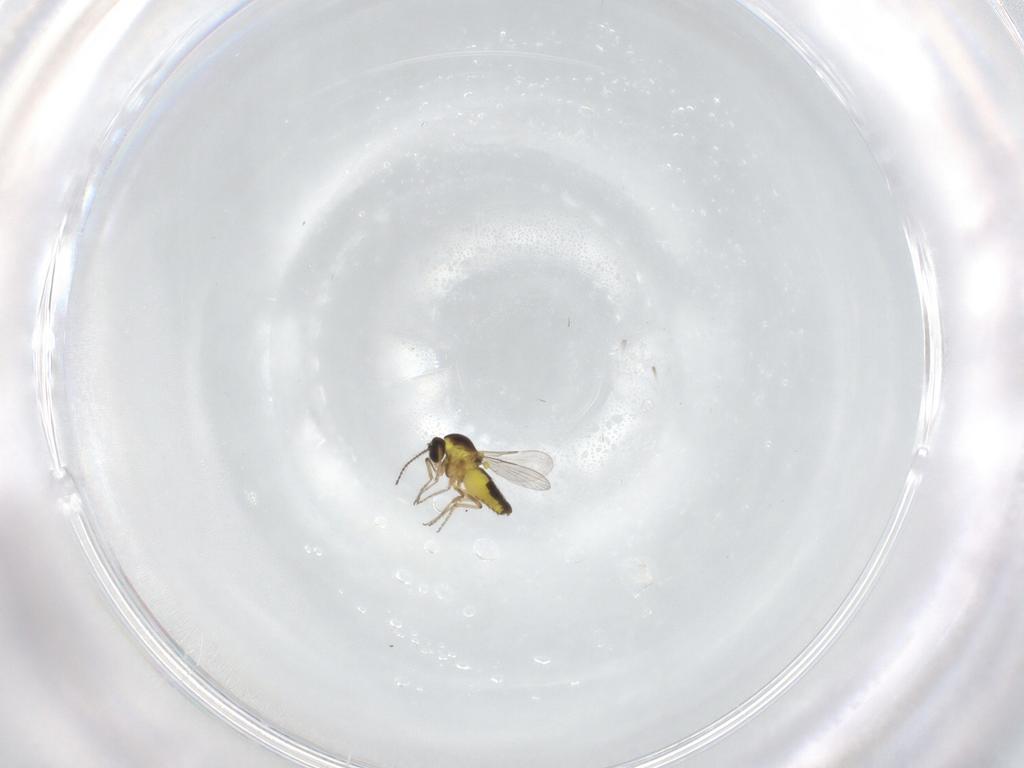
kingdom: Animalia
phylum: Arthropoda
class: Insecta
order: Diptera
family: Ceratopogonidae
